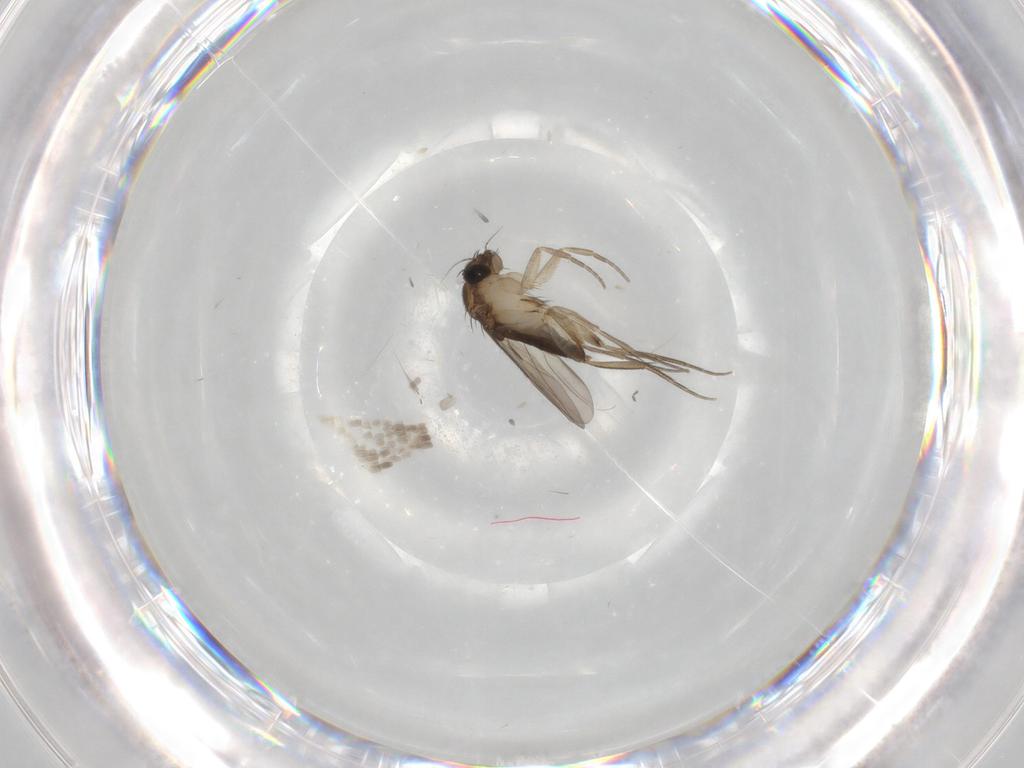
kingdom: Animalia
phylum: Arthropoda
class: Insecta
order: Diptera
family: Phoridae
